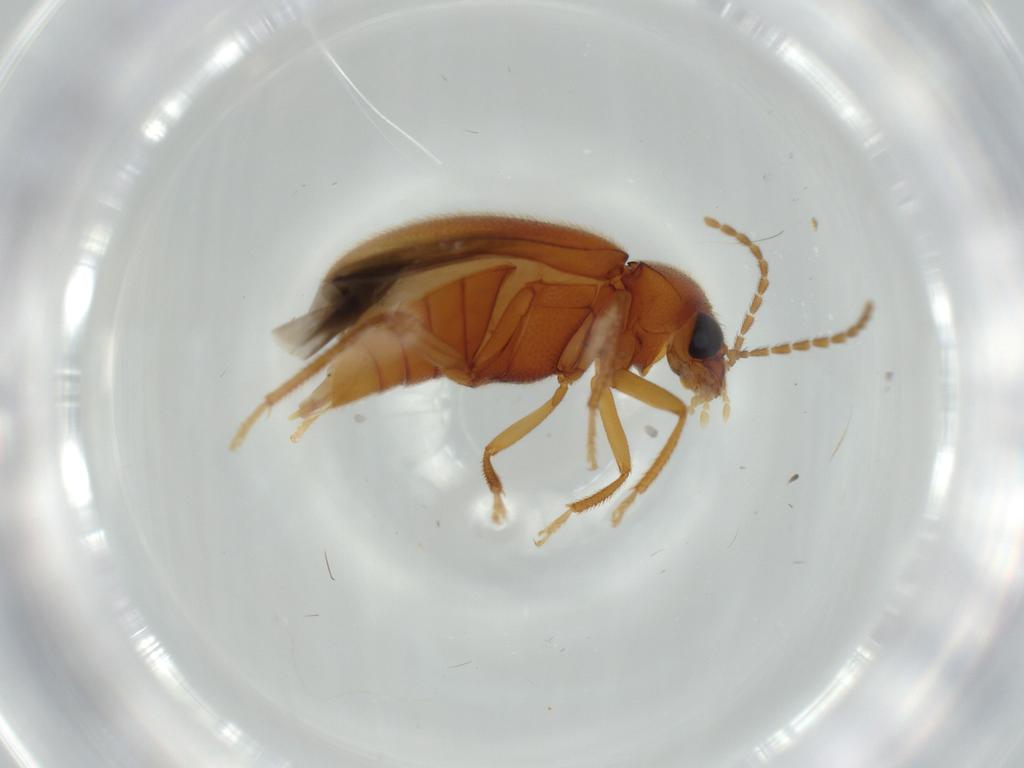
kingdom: Animalia
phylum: Arthropoda
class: Insecta
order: Coleoptera
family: Ptilodactylidae
